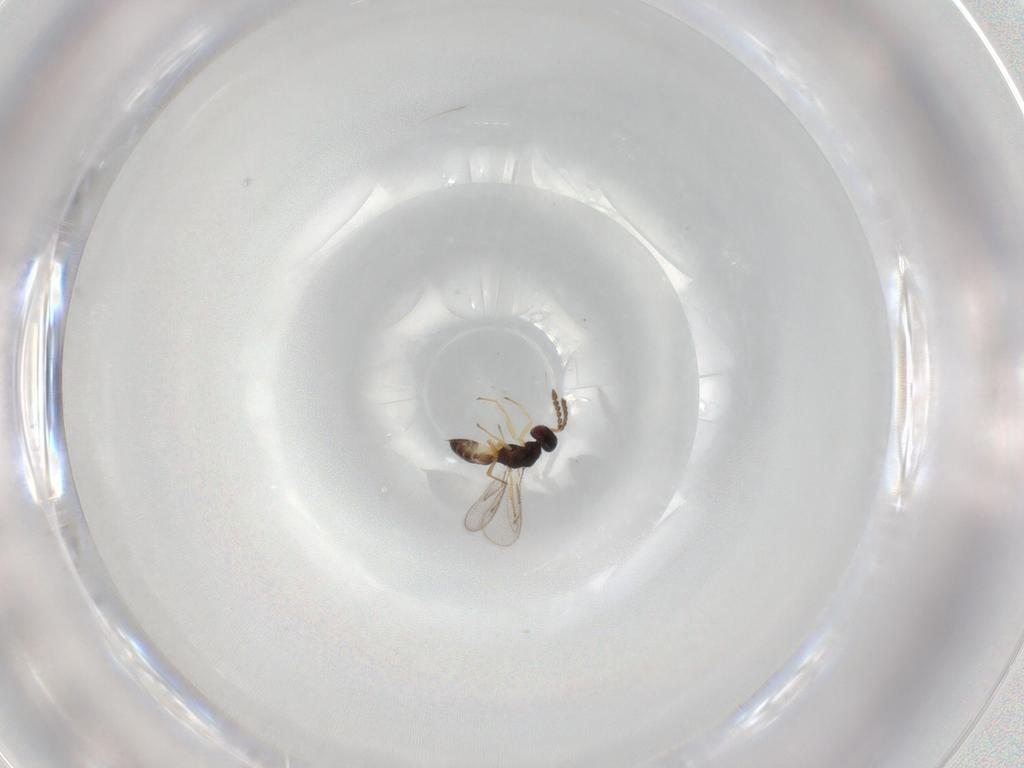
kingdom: Animalia
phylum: Arthropoda
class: Insecta
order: Hymenoptera
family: Eulophidae
